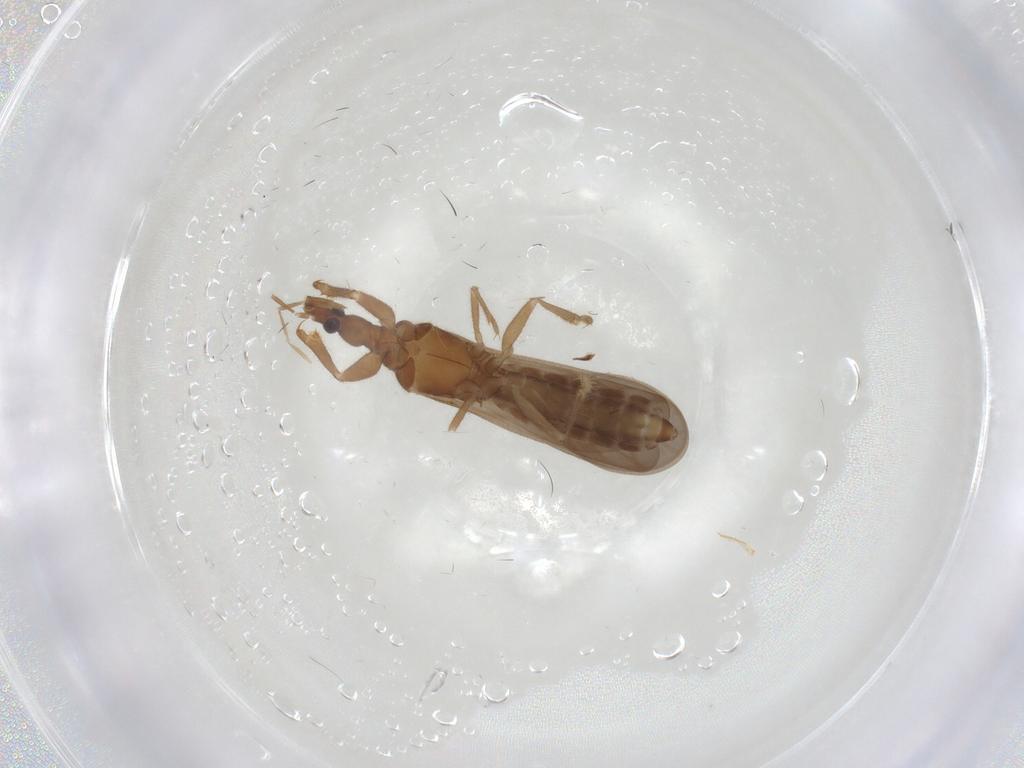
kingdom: Animalia
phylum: Arthropoda
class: Insecta
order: Hemiptera
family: Enicocephalidae
